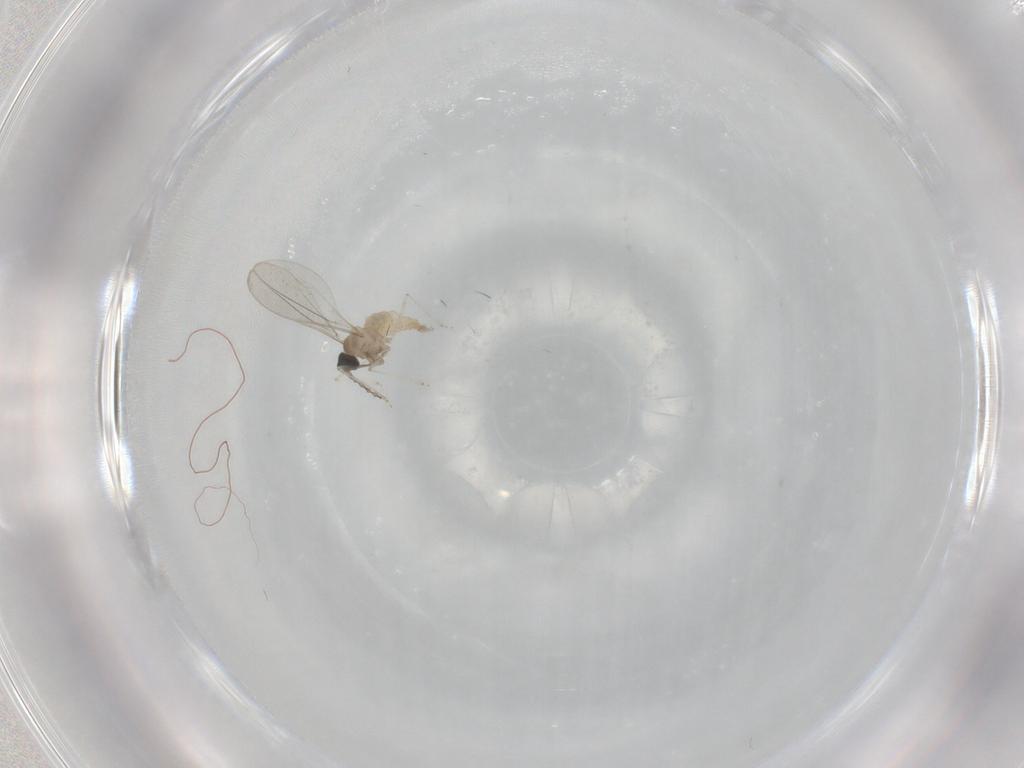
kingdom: Animalia
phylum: Arthropoda
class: Insecta
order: Diptera
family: Cecidomyiidae
